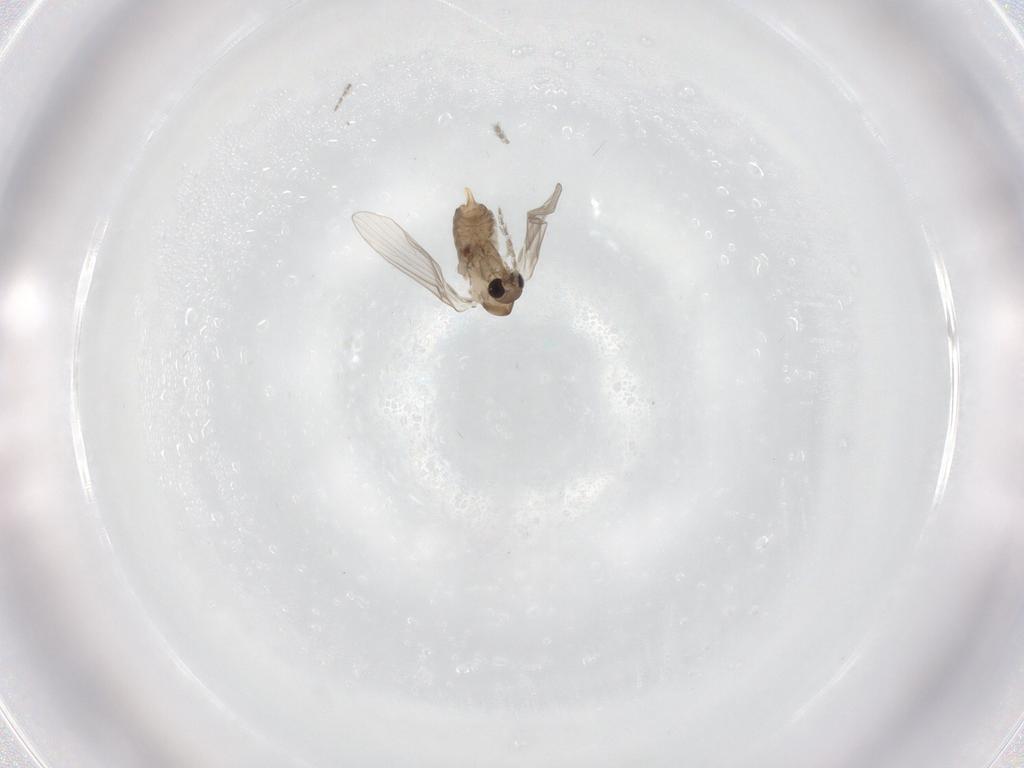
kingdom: Animalia
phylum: Arthropoda
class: Insecta
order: Diptera
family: Psychodidae
